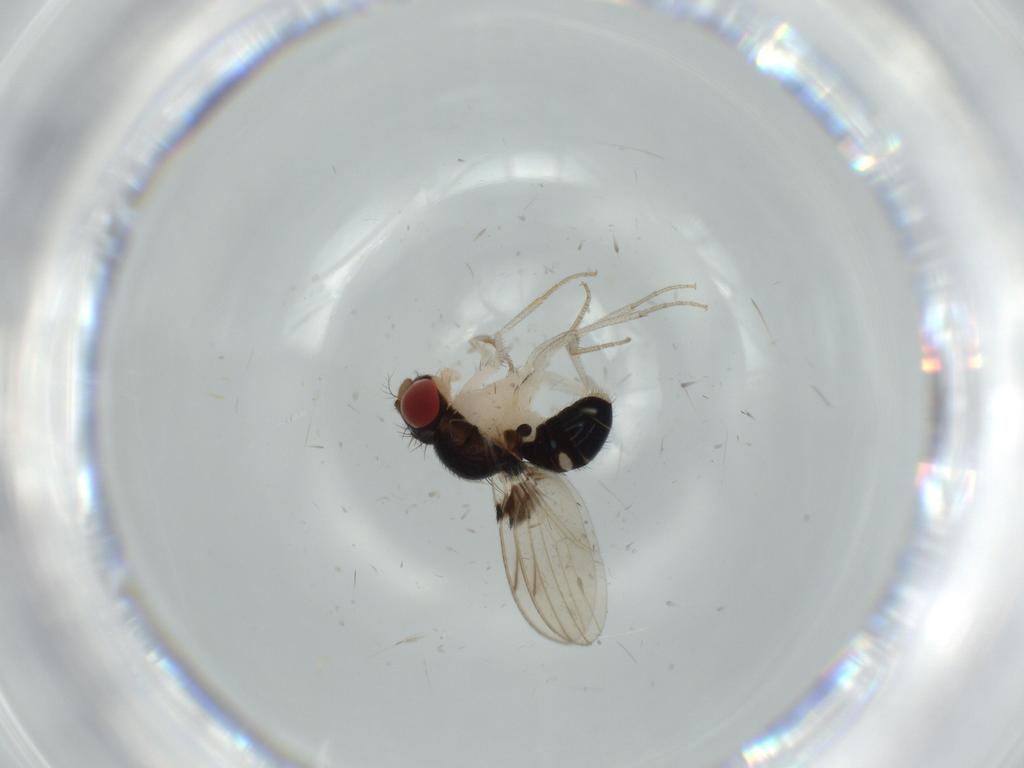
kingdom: Animalia
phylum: Arthropoda
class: Insecta
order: Diptera
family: Drosophilidae
